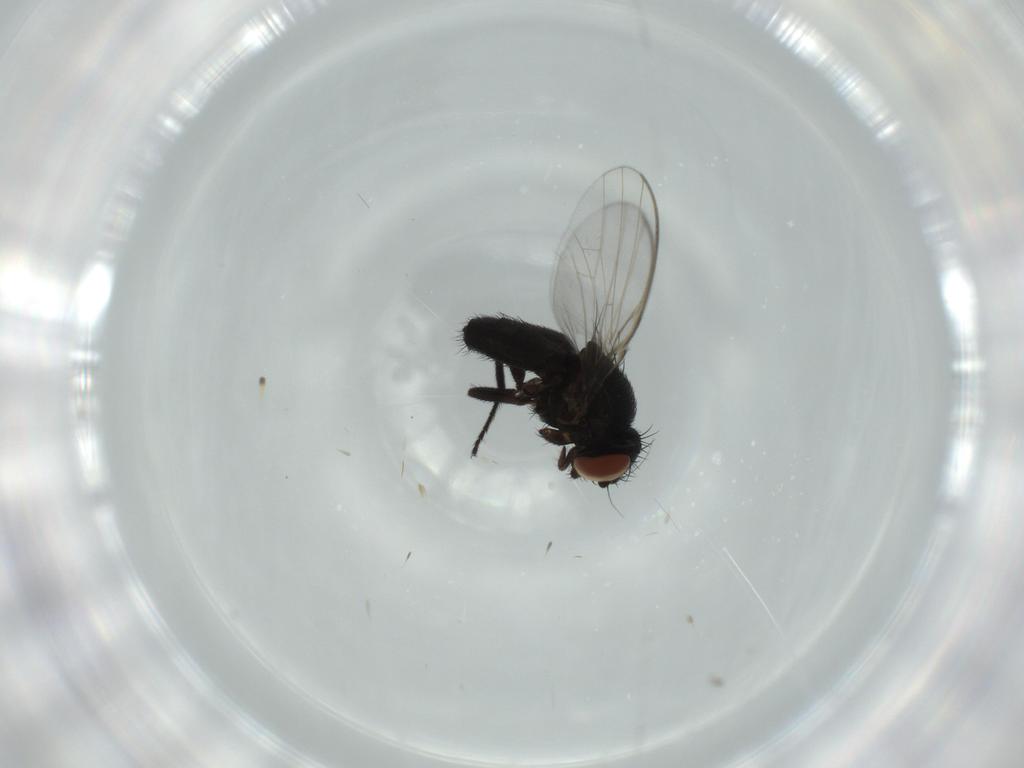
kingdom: Animalia
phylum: Arthropoda
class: Insecta
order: Diptera
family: Milichiidae
